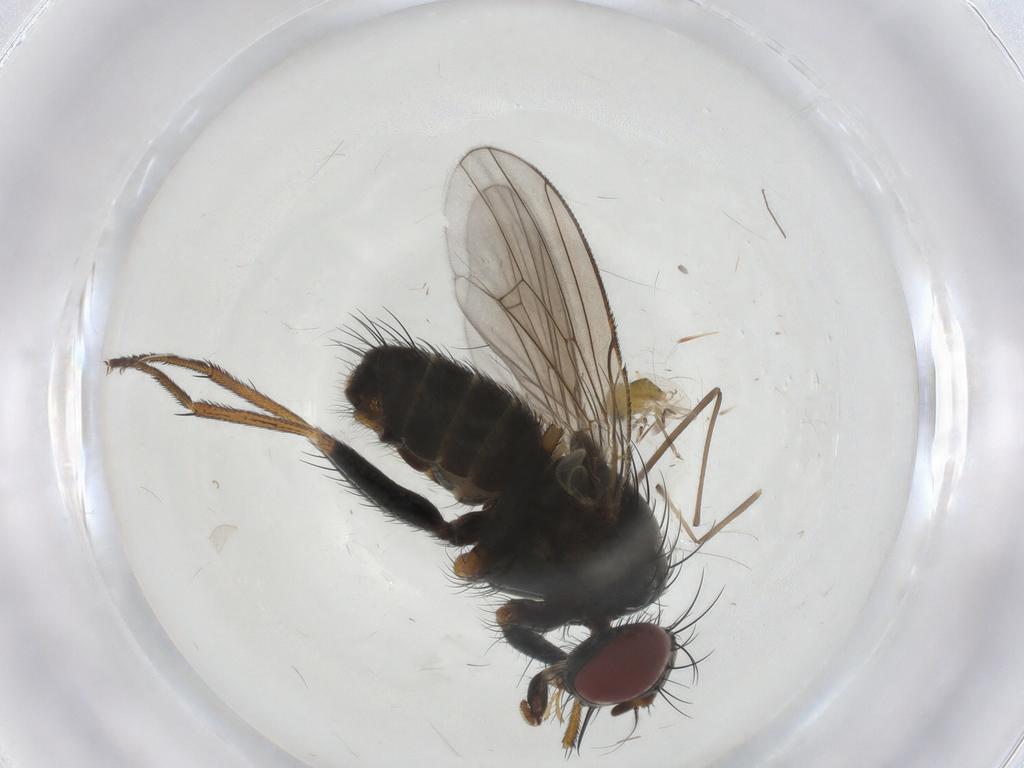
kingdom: Animalia
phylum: Arthropoda
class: Insecta
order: Diptera
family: Chironomidae
